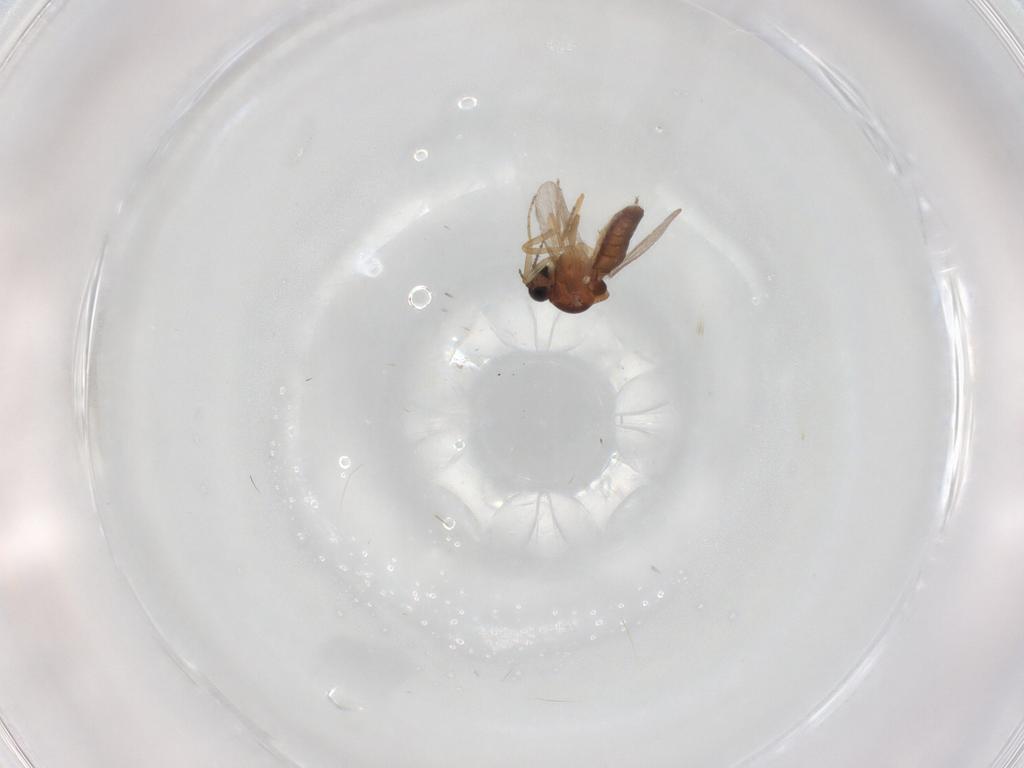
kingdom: Animalia
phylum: Arthropoda
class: Insecta
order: Diptera
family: Ceratopogonidae
